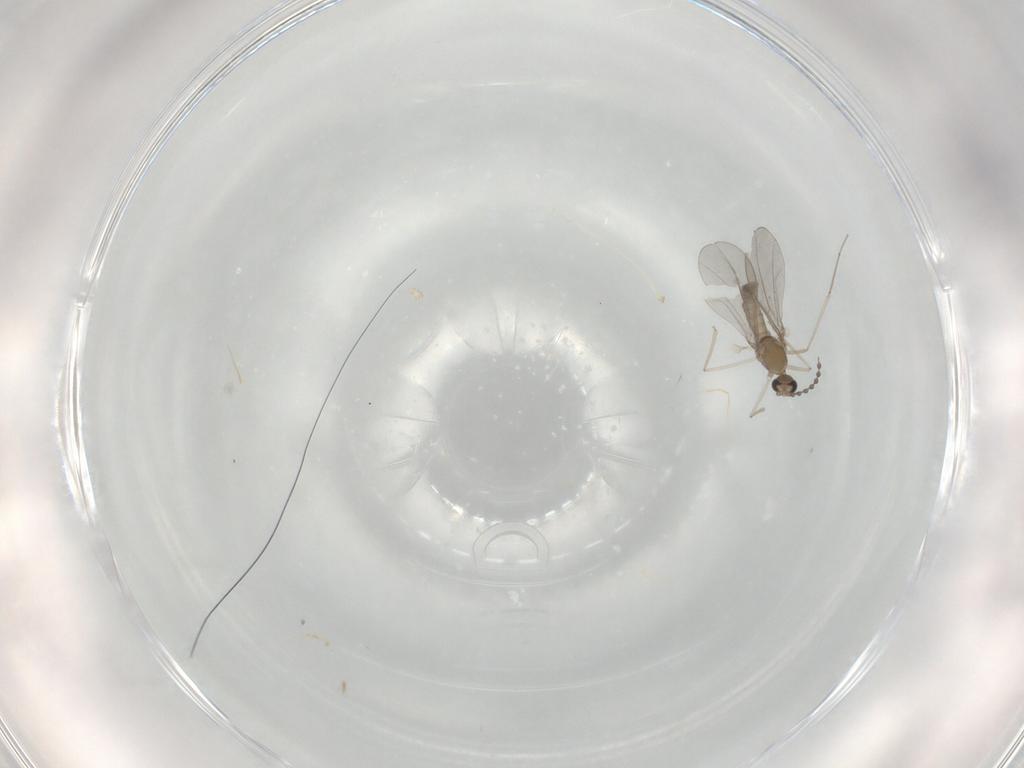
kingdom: Animalia
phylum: Arthropoda
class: Insecta
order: Diptera
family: Cecidomyiidae
